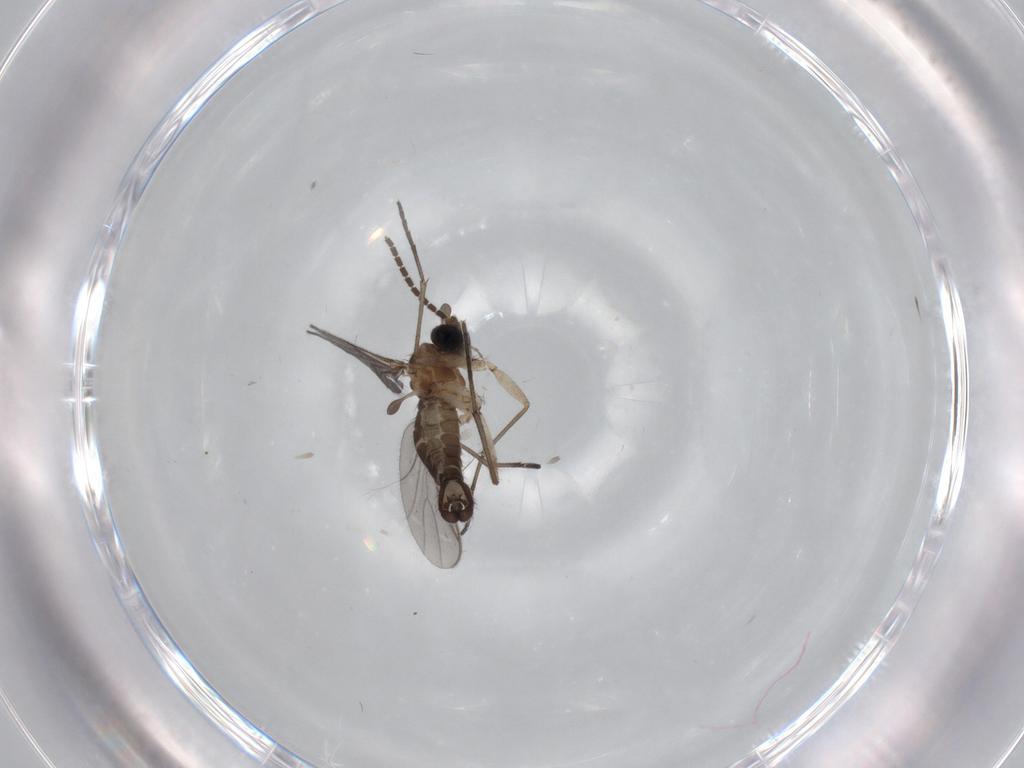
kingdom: Animalia
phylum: Arthropoda
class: Insecta
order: Diptera
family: Sciaridae
